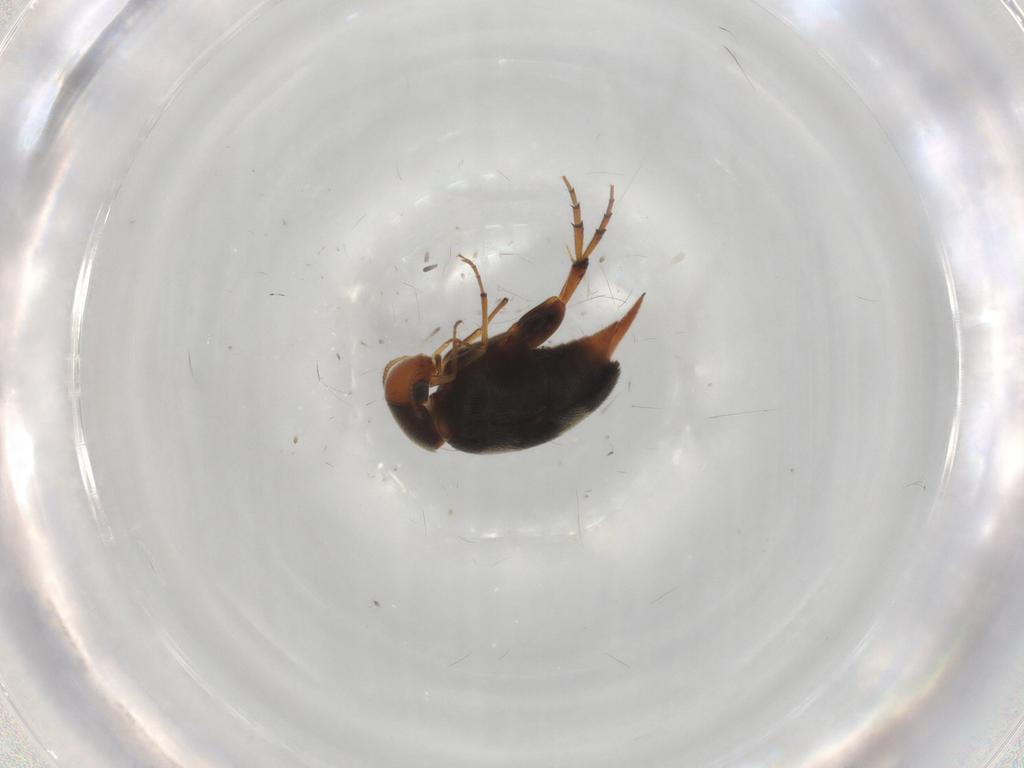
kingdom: Animalia
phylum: Arthropoda
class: Insecta
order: Coleoptera
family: Mordellidae
